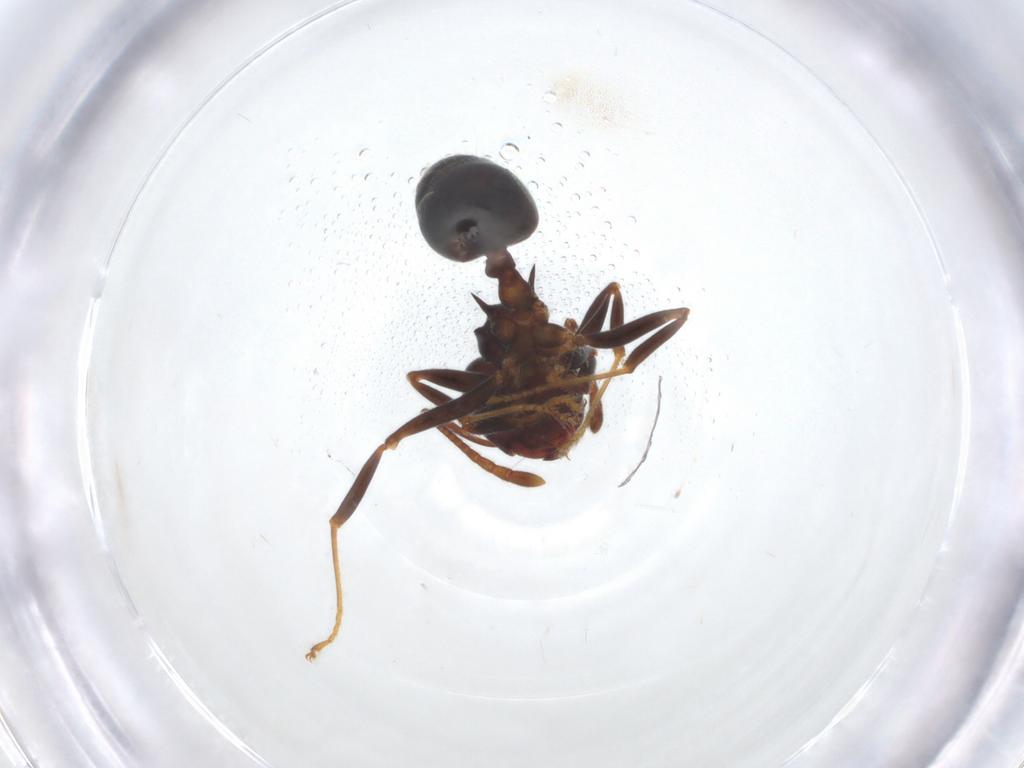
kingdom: Animalia
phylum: Arthropoda
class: Insecta
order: Hymenoptera
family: Formicidae
